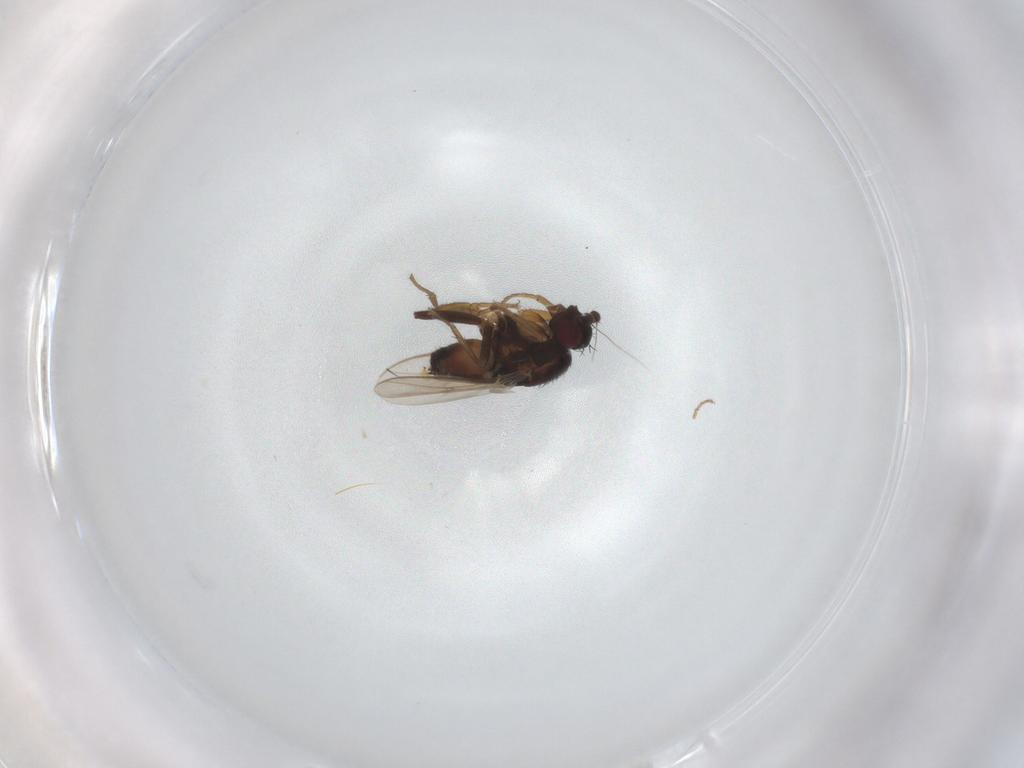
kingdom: Animalia
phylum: Arthropoda
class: Insecta
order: Diptera
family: Sphaeroceridae
